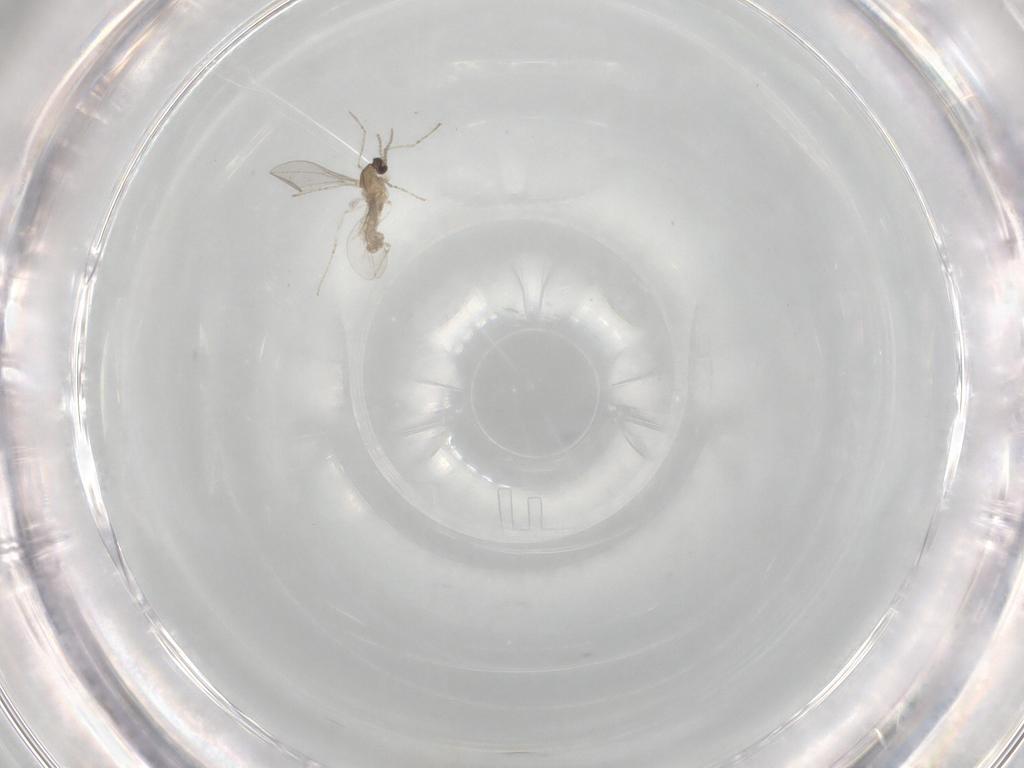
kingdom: Animalia
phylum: Arthropoda
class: Insecta
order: Diptera
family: Cecidomyiidae
